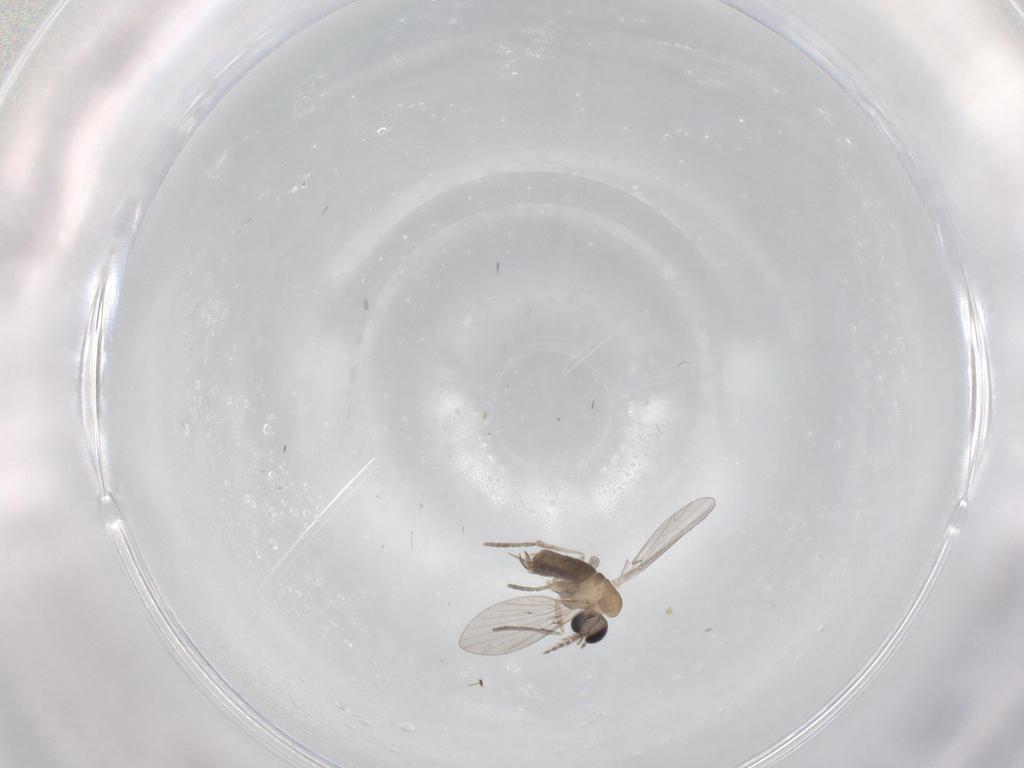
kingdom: Animalia
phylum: Arthropoda
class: Insecta
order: Diptera
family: Psychodidae
